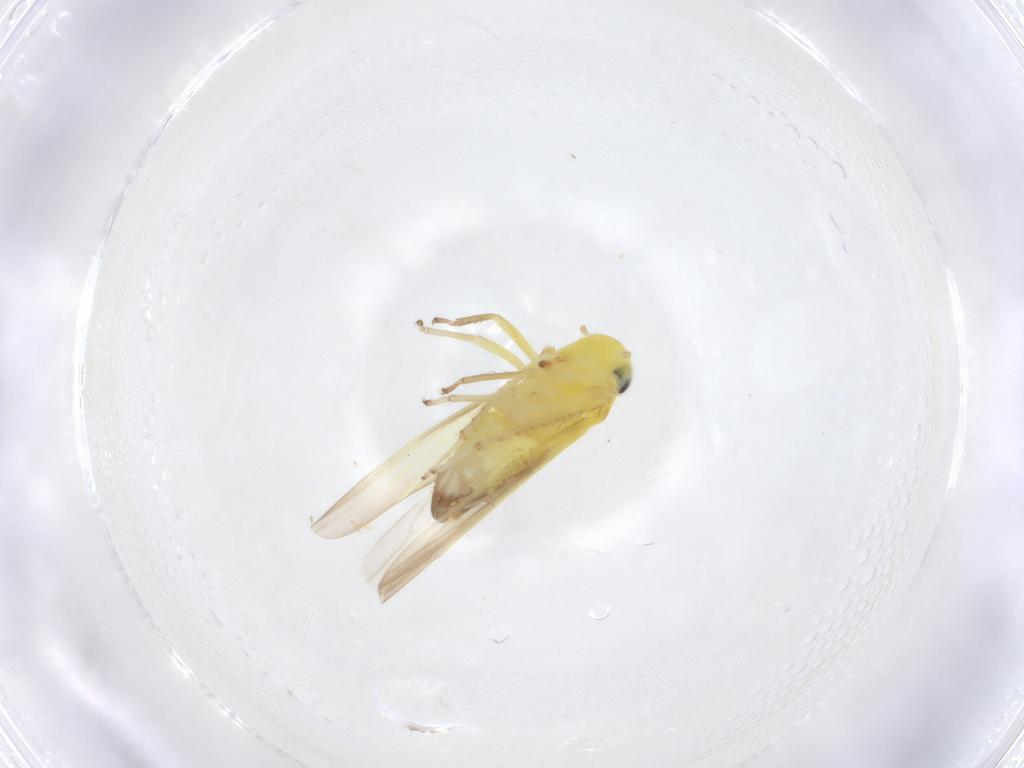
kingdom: Animalia
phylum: Arthropoda
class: Insecta
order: Hemiptera
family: Cicadellidae
